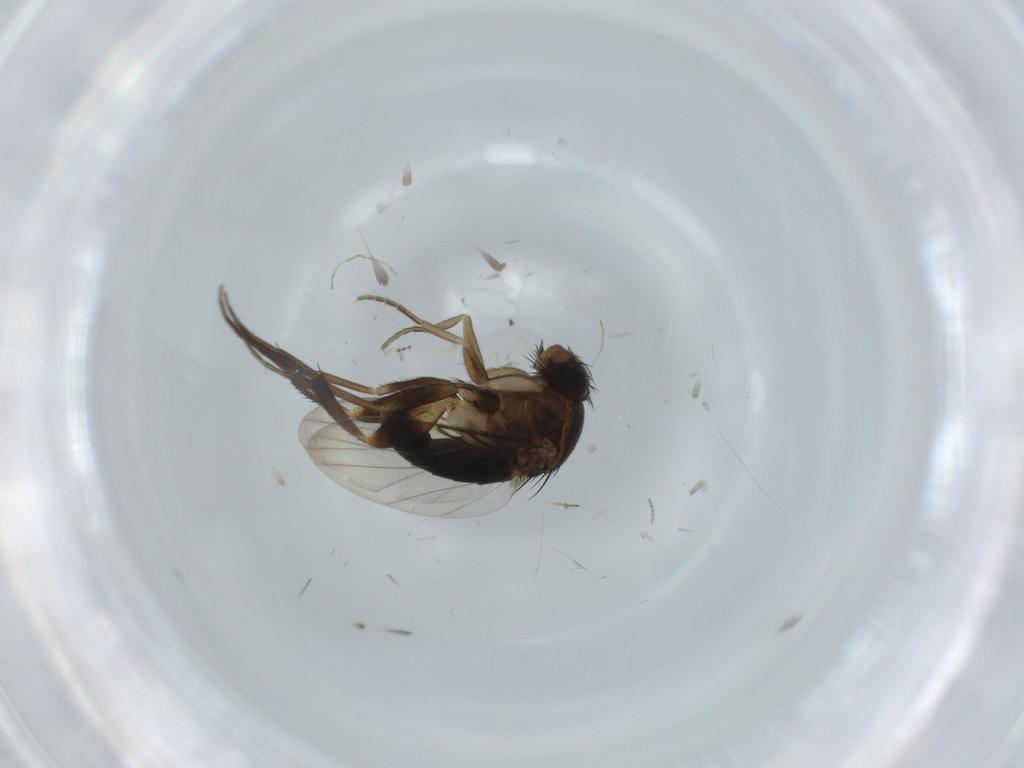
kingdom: Animalia
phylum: Arthropoda
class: Insecta
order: Diptera
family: Phoridae
